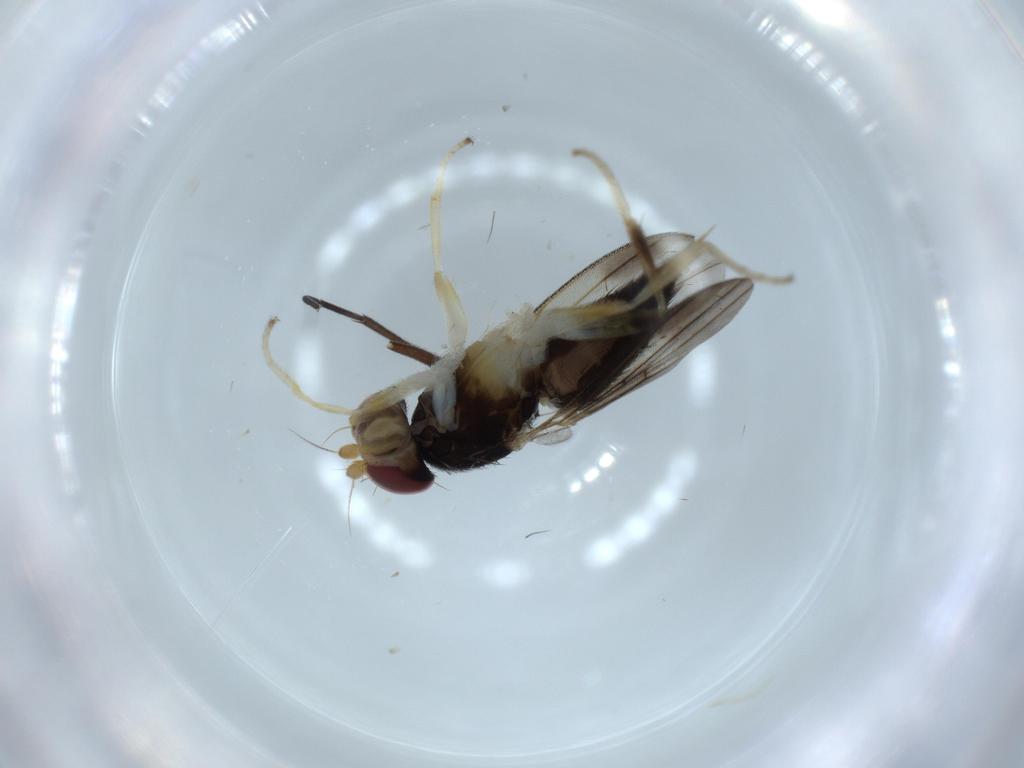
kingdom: Animalia
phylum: Arthropoda
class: Insecta
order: Diptera
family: Clusiidae
